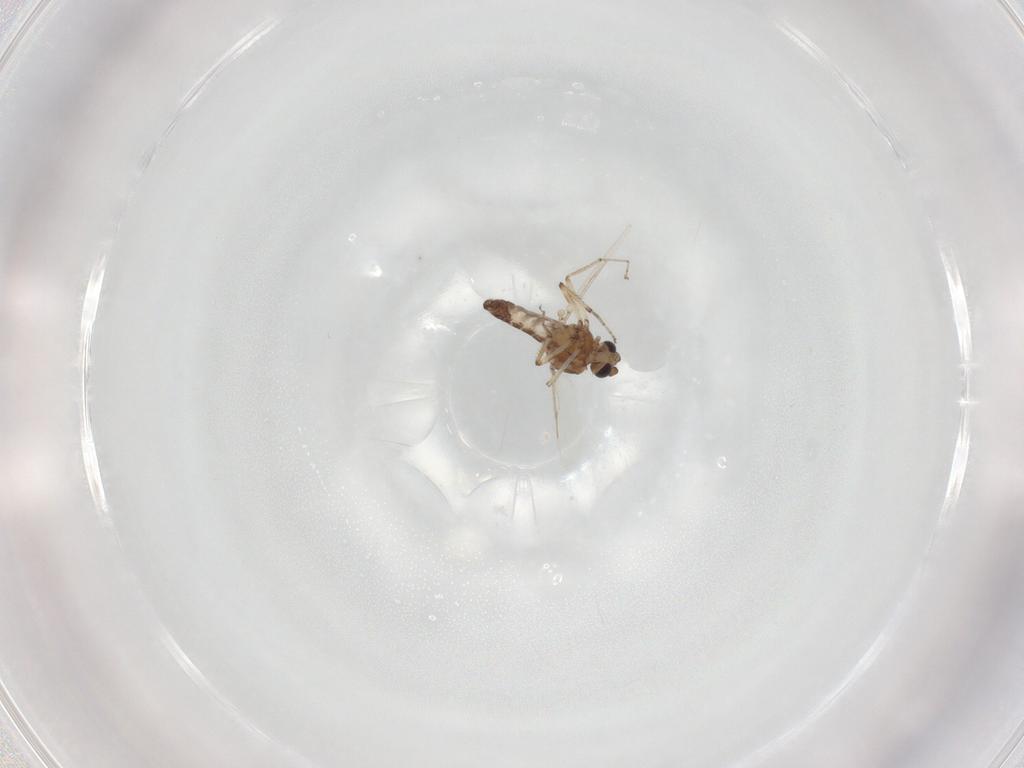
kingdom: Animalia
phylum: Arthropoda
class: Insecta
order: Diptera
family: Ceratopogonidae
